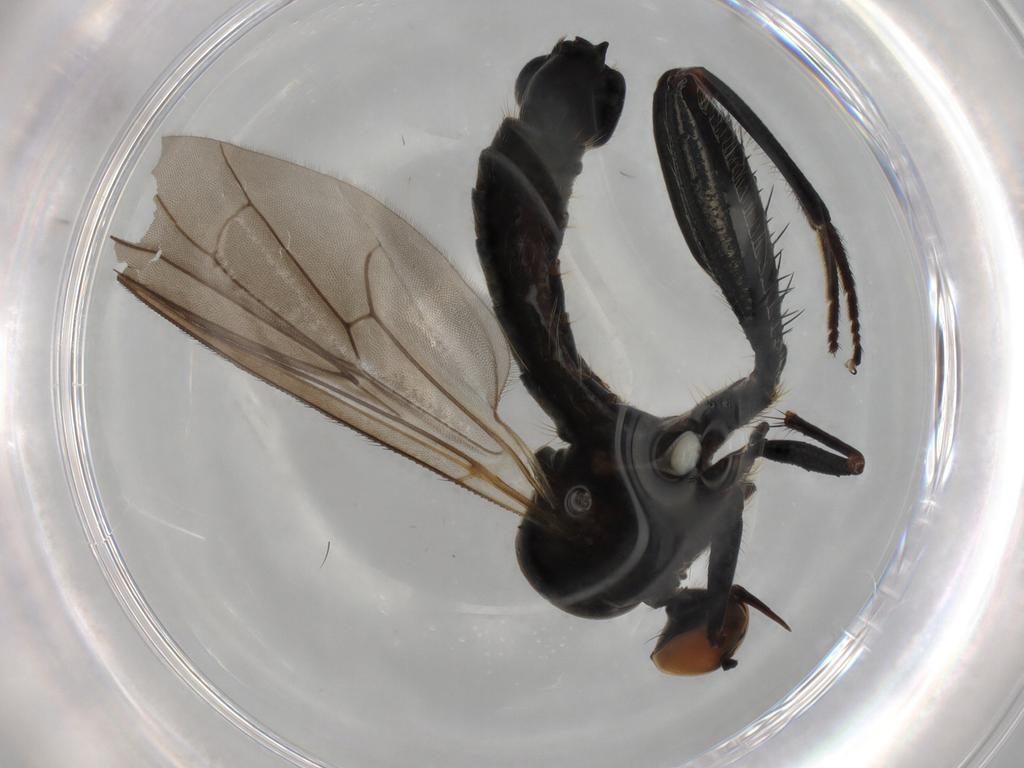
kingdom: Animalia
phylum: Arthropoda
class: Insecta
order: Diptera
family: Hybotidae
